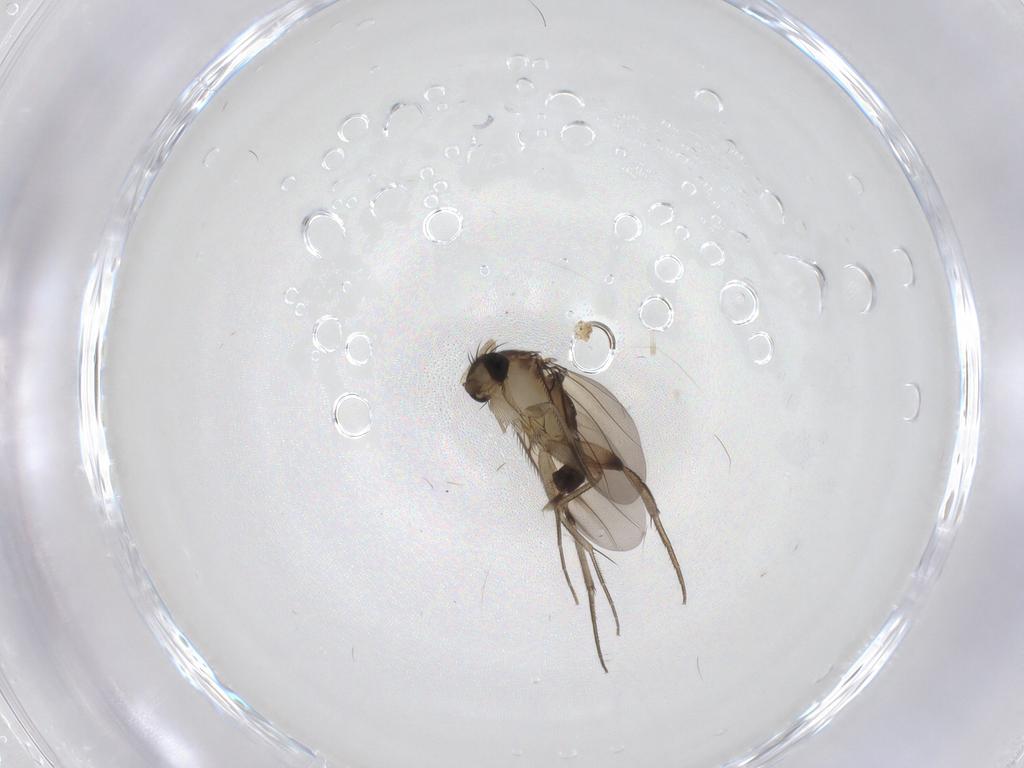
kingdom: Animalia
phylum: Arthropoda
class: Insecta
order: Diptera
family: Phoridae
